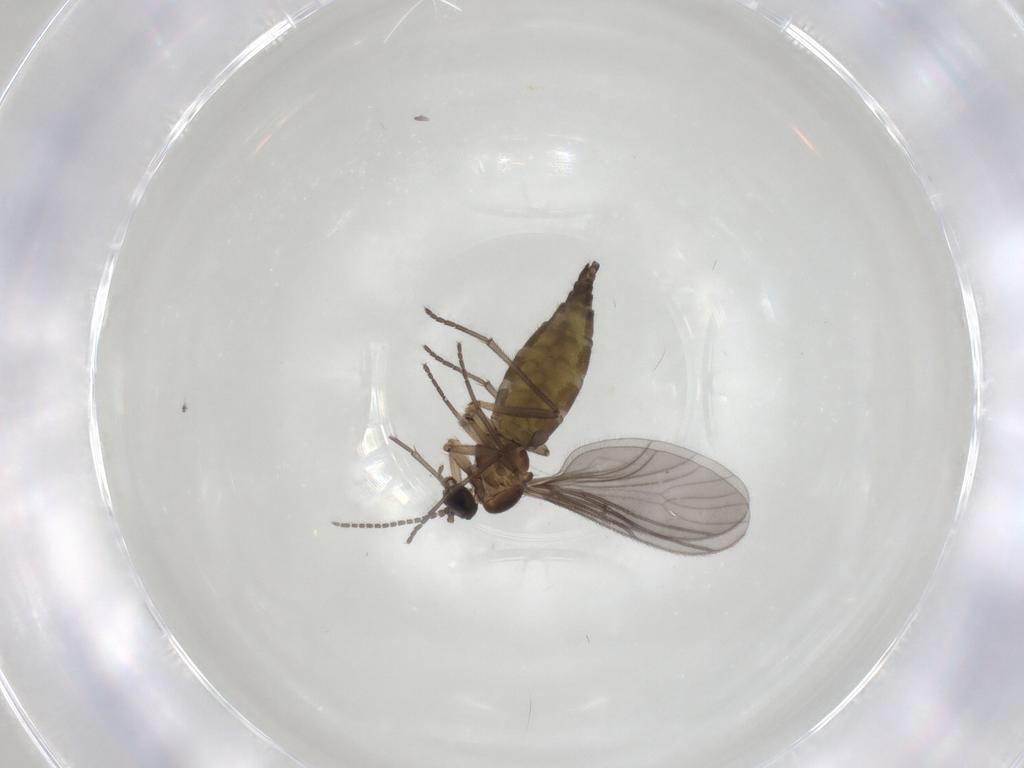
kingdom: Animalia
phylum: Arthropoda
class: Insecta
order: Diptera
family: Sciaridae
